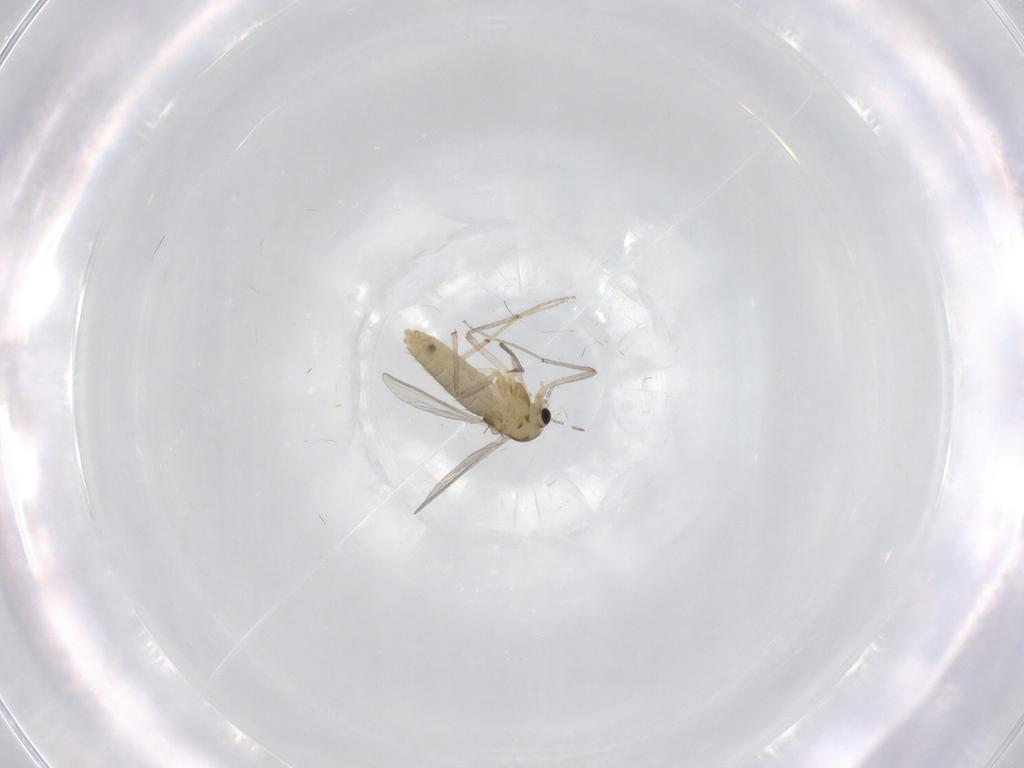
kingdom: Animalia
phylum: Arthropoda
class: Insecta
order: Diptera
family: Chironomidae
